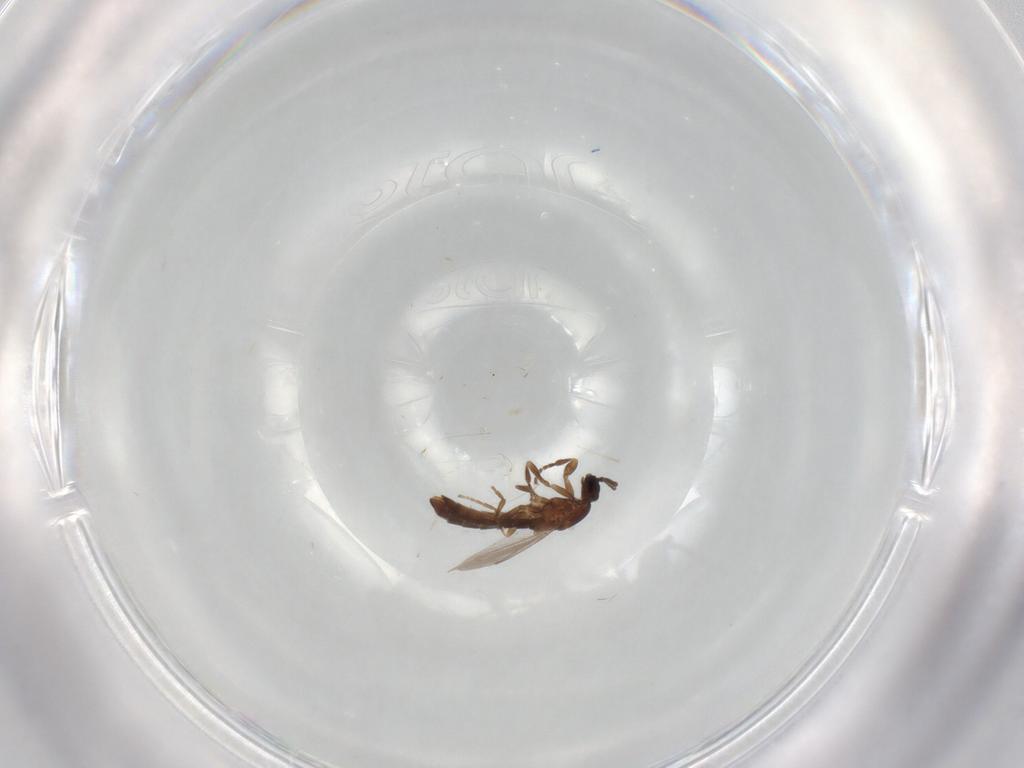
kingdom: Animalia
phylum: Arthropoda
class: Insecta
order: Diptera
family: Scatopsidae
